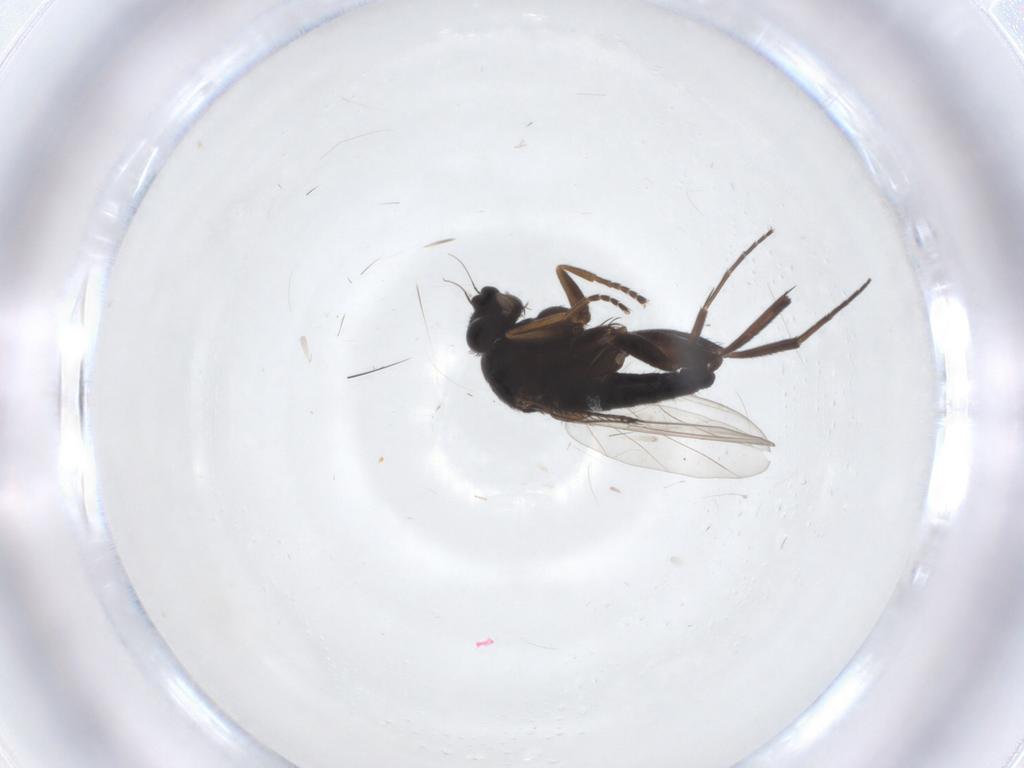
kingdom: Animalia
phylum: Arthropoda
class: Insecta
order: Diptera
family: Phoridae
